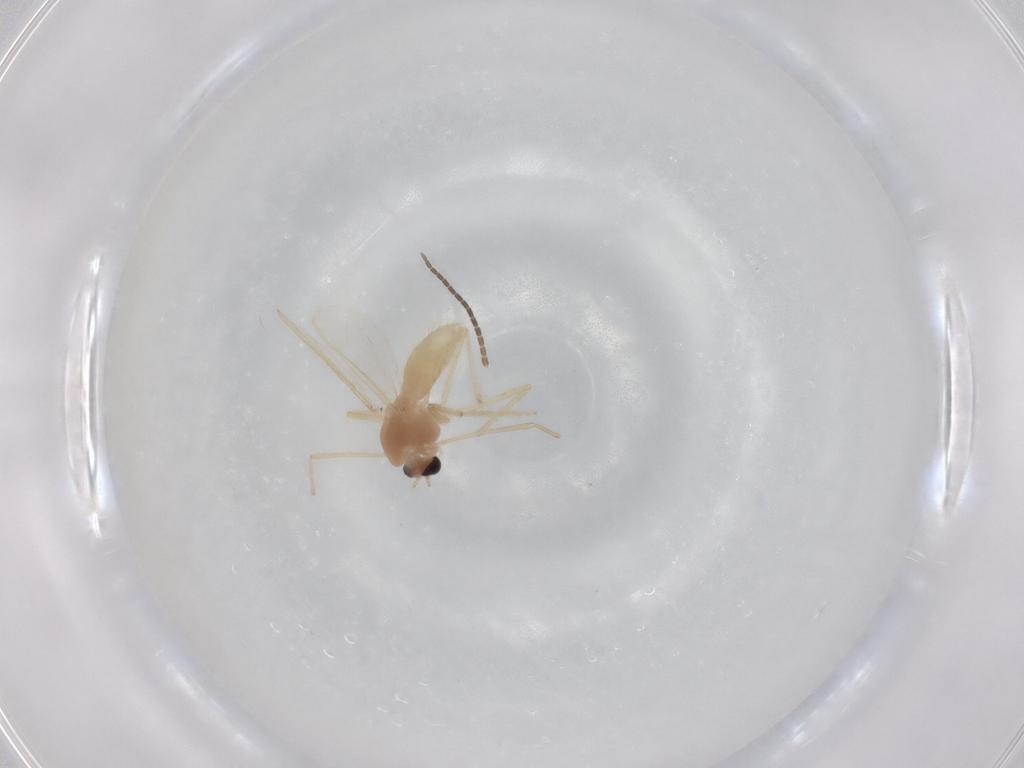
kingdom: Animalia
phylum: Arthropoda
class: Insecta
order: Diptera
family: Chironomidae
